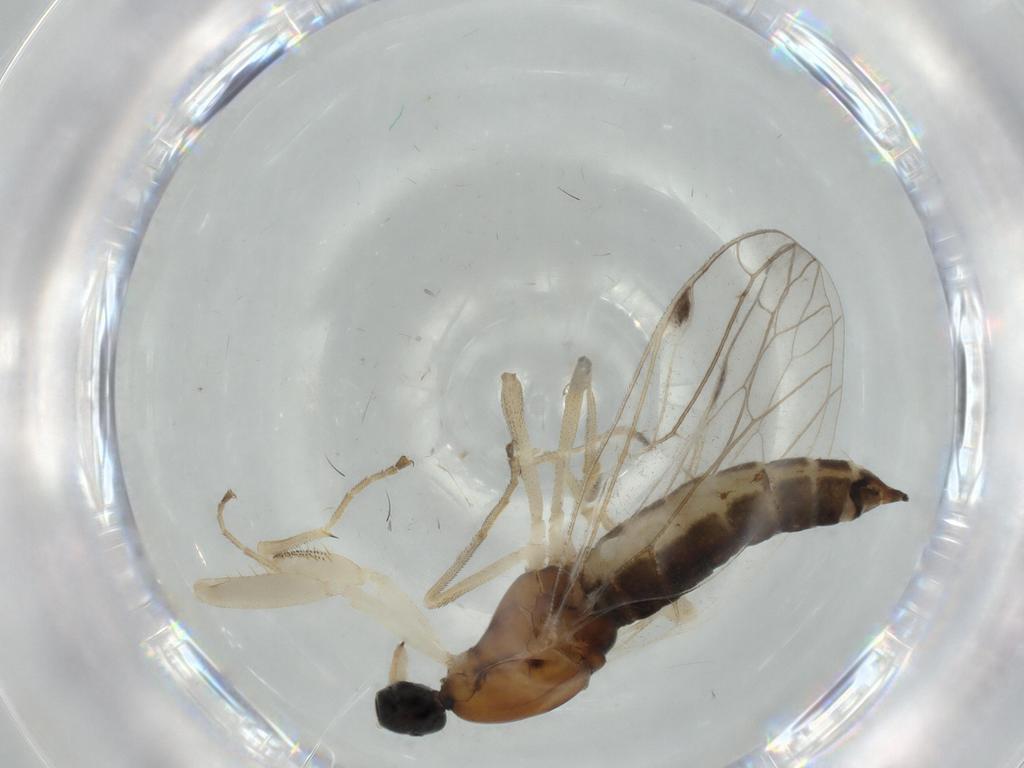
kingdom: Animalia
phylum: Arthropoda
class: Insecta
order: Diptera
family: Empididae
